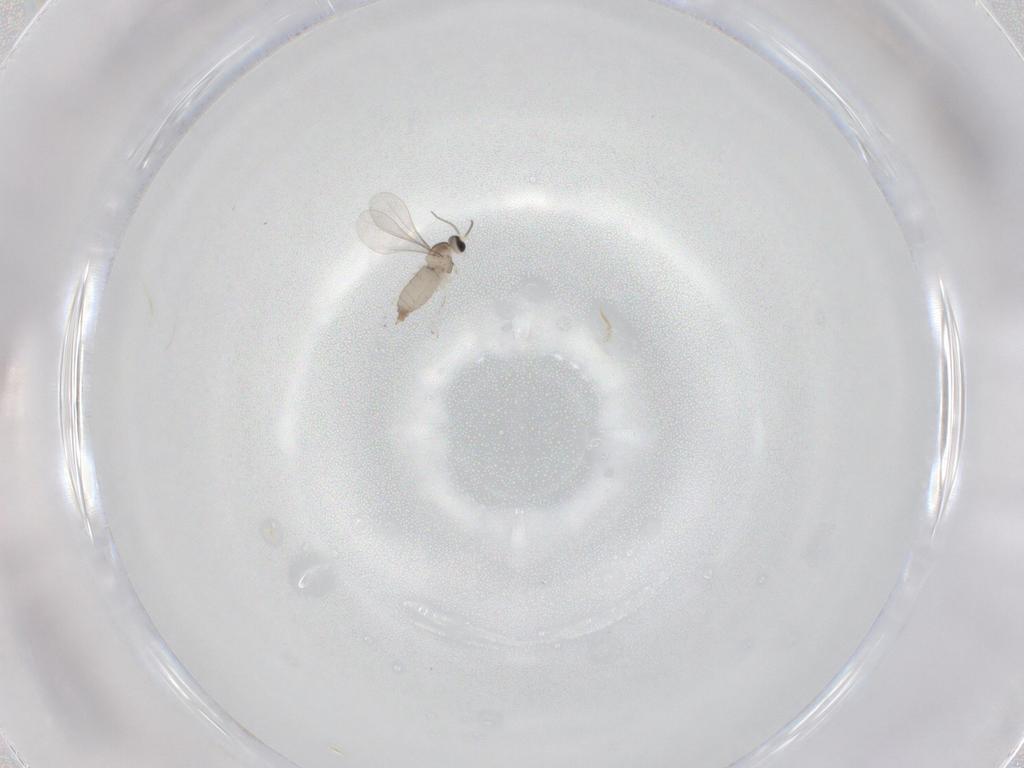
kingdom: Animalia
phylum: Arthropoda
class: Insecta
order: Diptera
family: Cecidomyiidae
